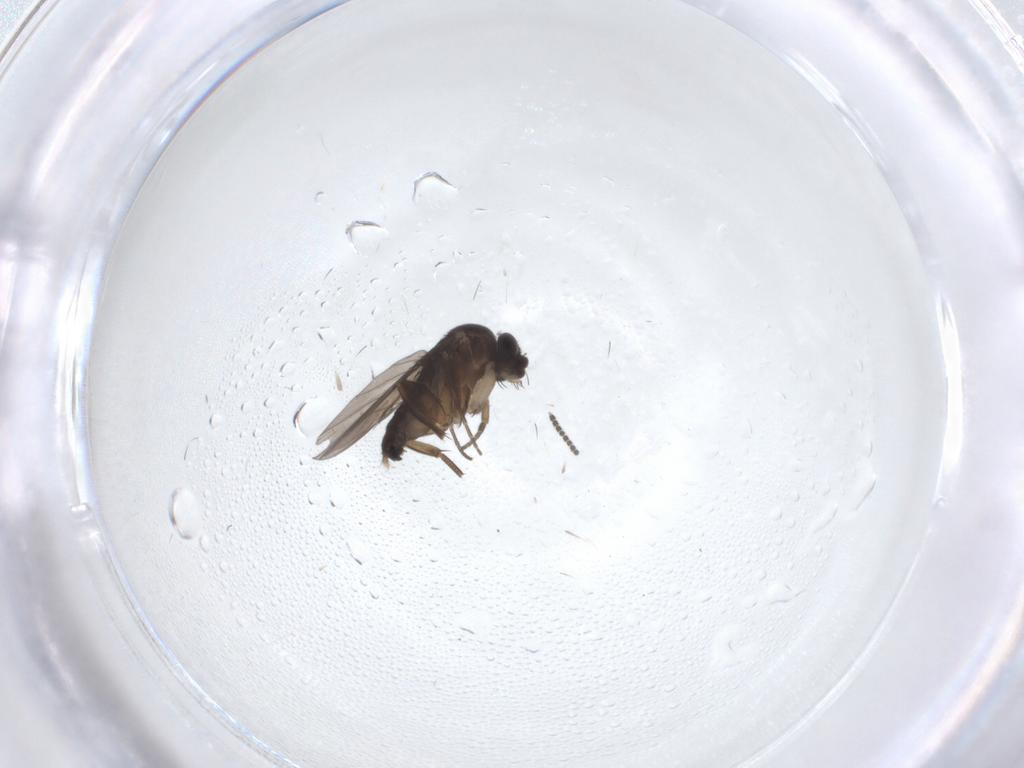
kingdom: Animalia
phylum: Arthropoda
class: Insecta
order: Diptera
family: Phoridae
